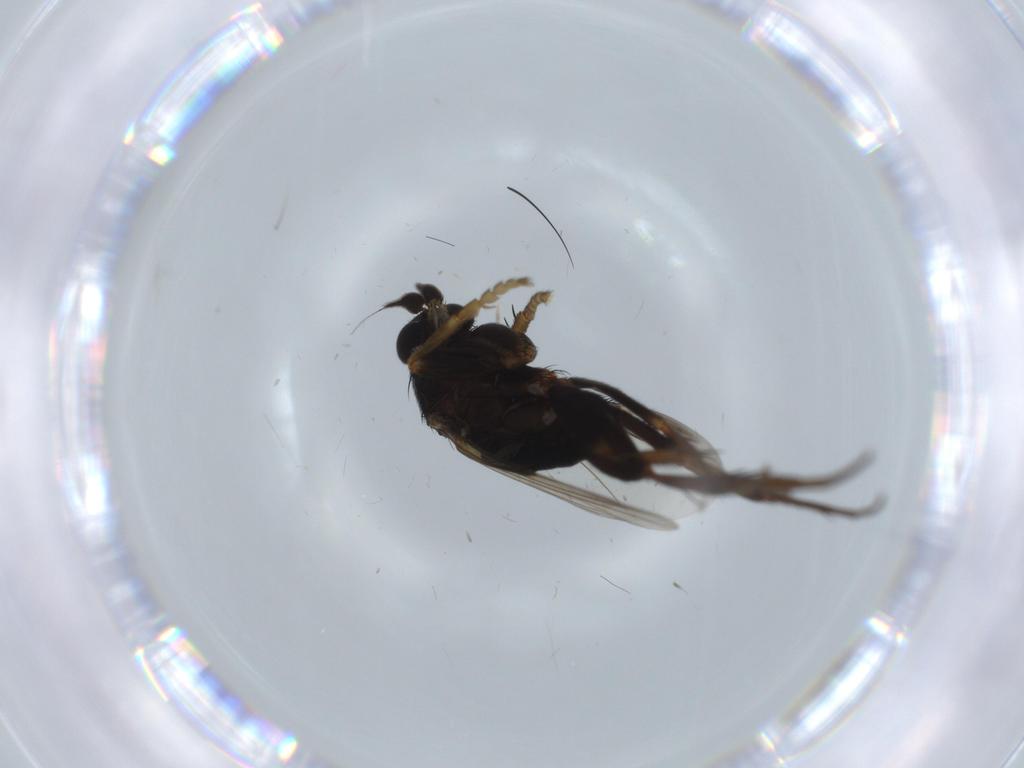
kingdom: Animalia
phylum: Arthropoda
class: Insecta
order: Diptera
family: Phoridae
